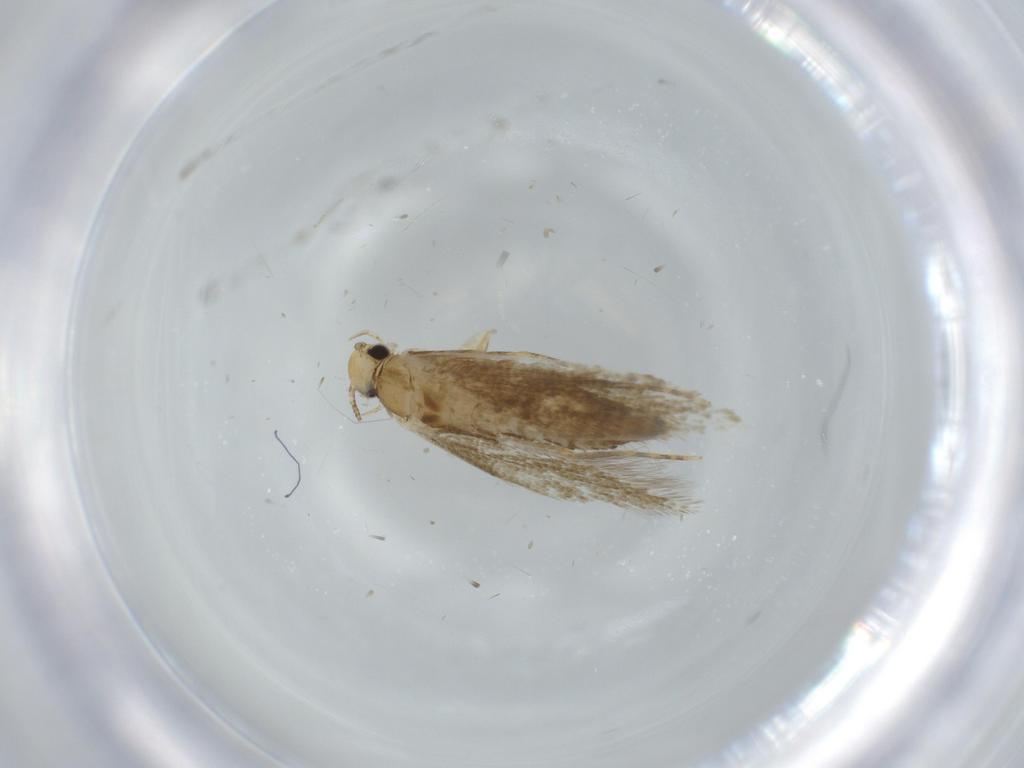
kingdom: Animalia
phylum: Arthropoda
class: Insecta
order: Lepidoptera
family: Tineidae
